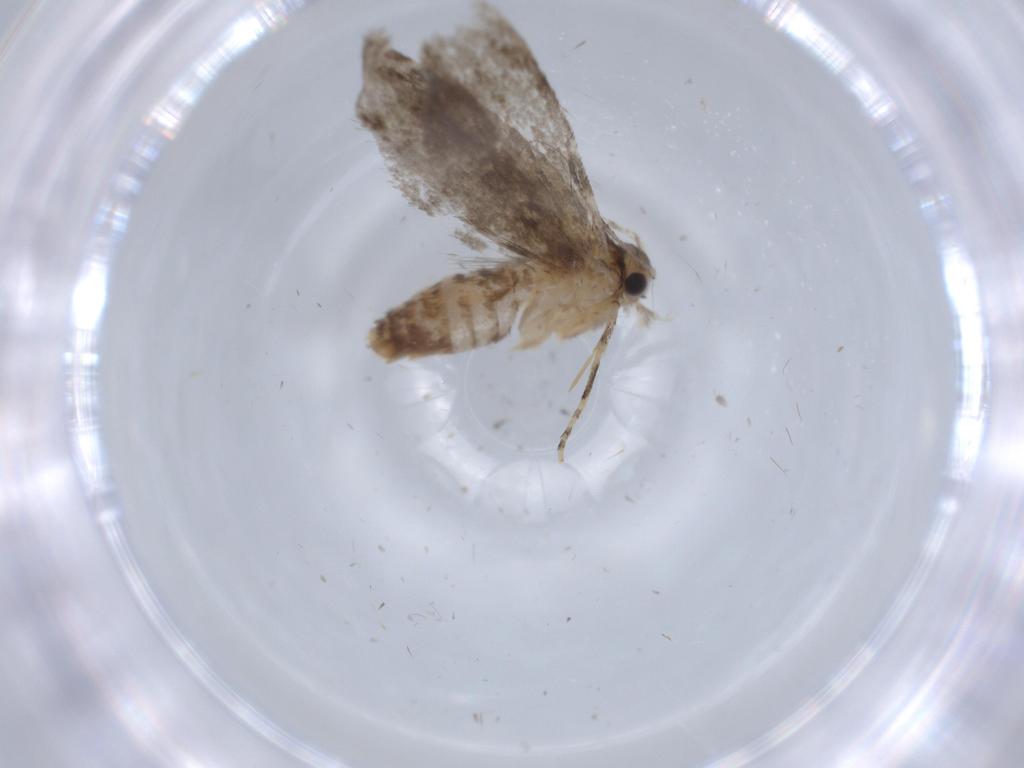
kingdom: Animalia
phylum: Arthropoda
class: Insecta
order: Lepidoptera
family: Tineidae
